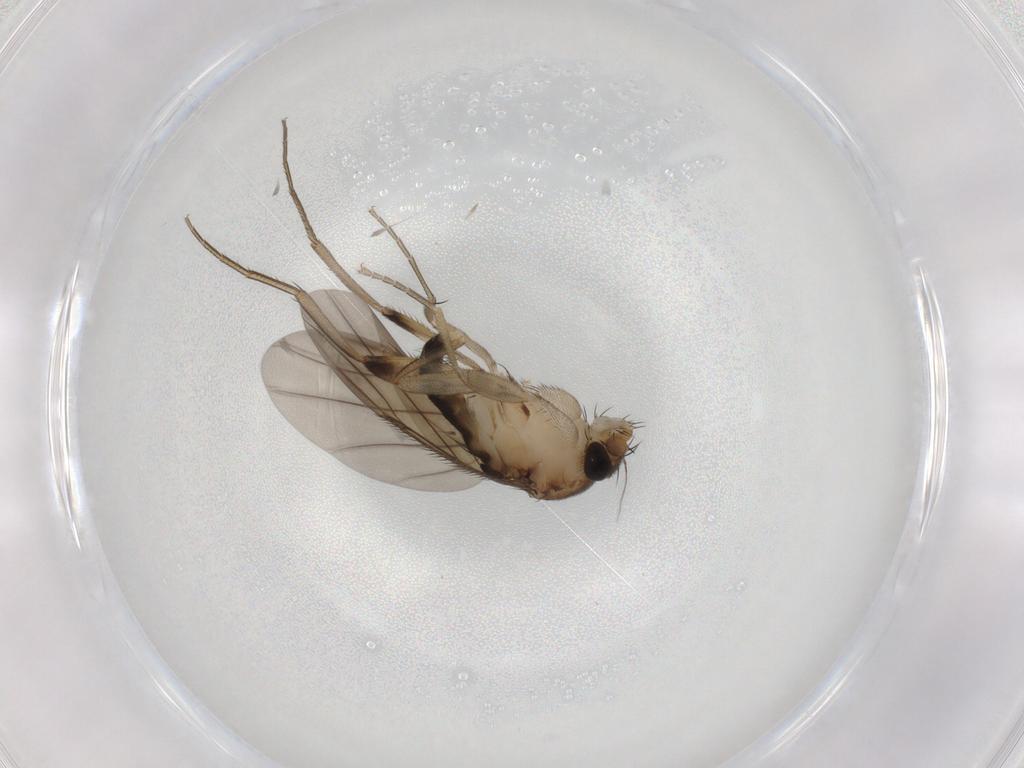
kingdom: Animalia
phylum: Arthropoda
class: Insecta
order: Diptera
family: Phoridae
